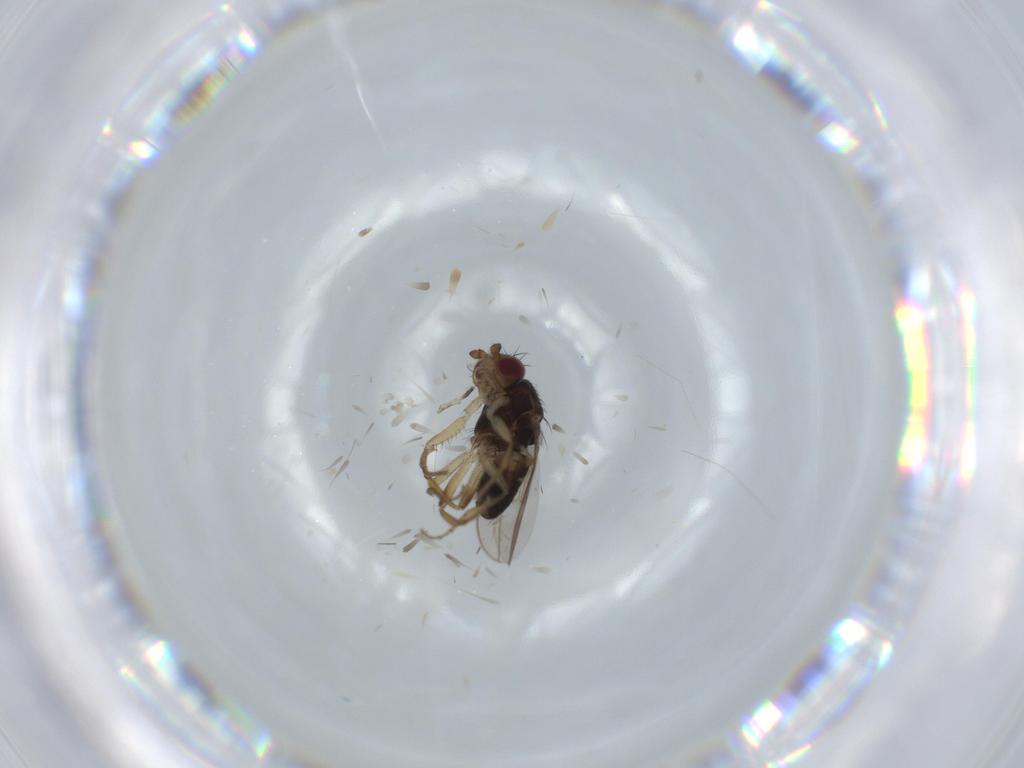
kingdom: Animalia
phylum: Arthropoda
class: Insecta
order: Diptera
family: Sphaeroceridae
